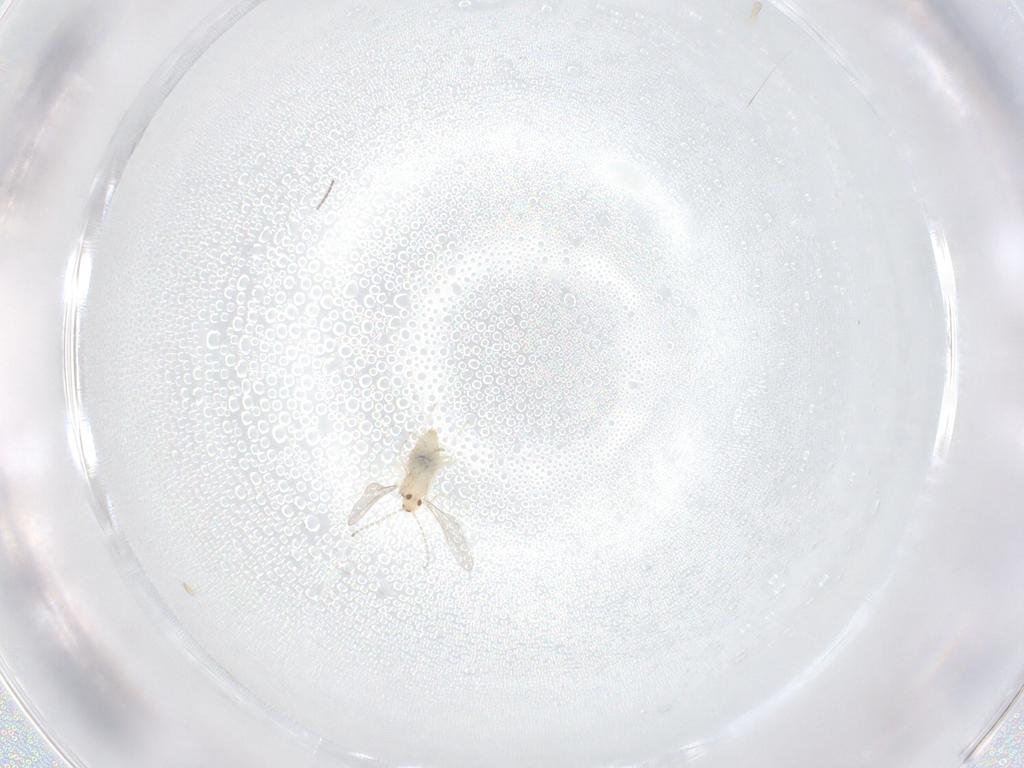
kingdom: Animalia
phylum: Arthropoda
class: Insecta
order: Diptera
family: Cecidomyiidae
